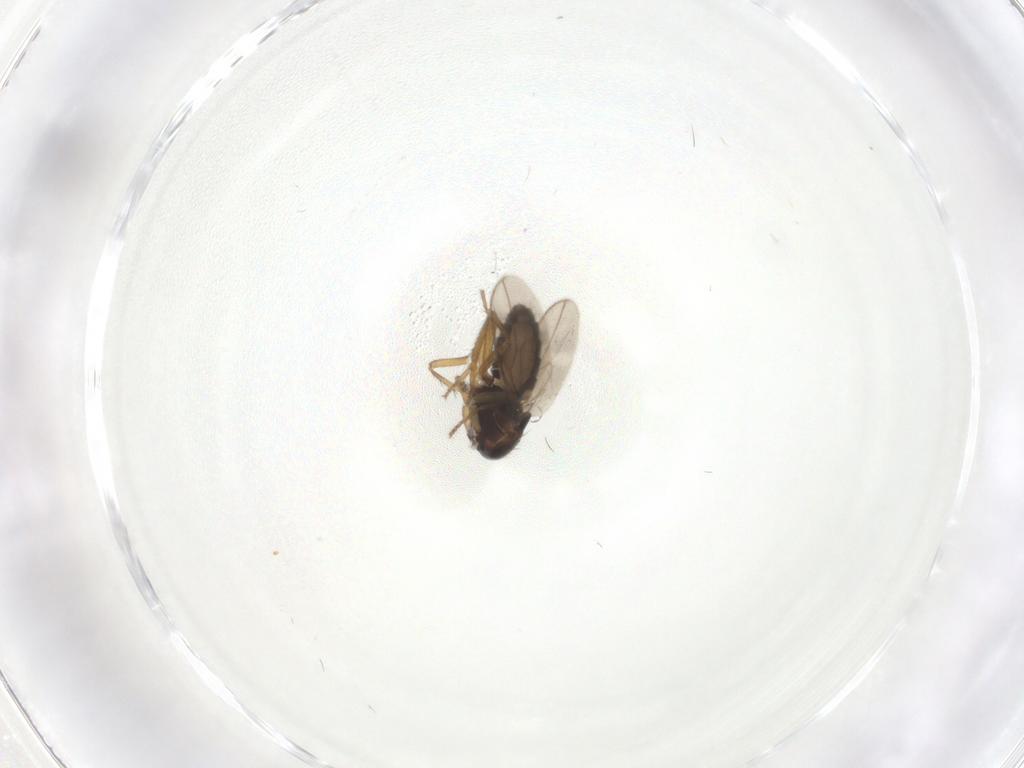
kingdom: Animalia
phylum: Arthropoda
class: Insecta
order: Diptera
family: Sphaeroceridae
